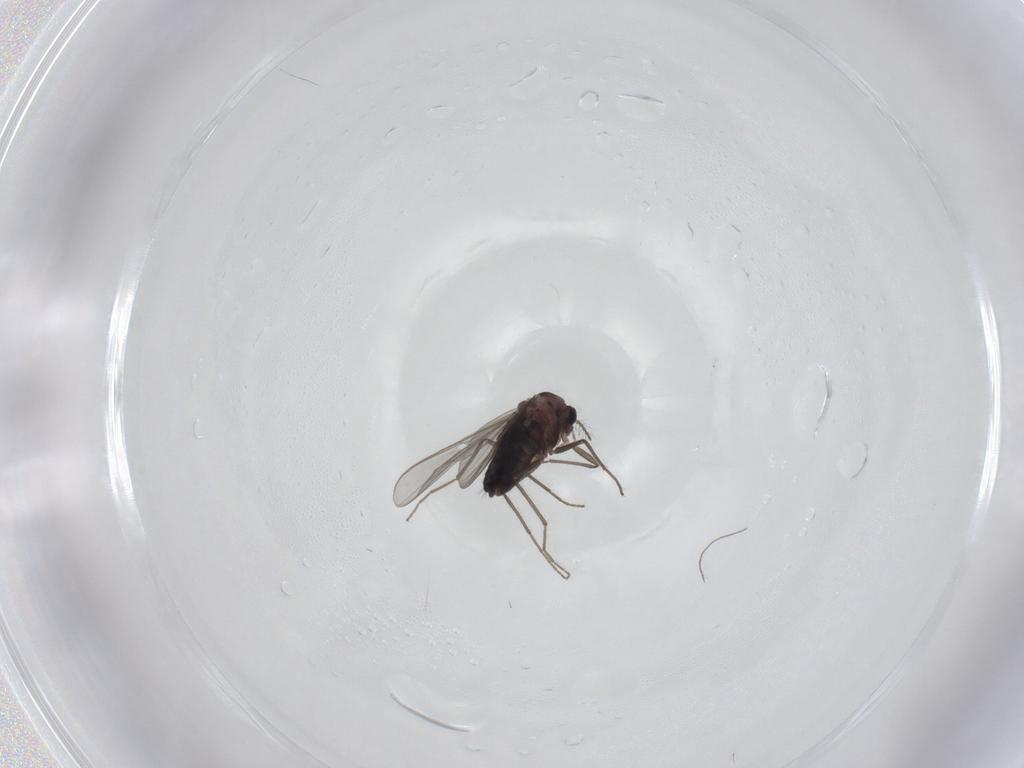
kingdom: Animalia
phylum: Arthropoda
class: Insecta
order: Diptera
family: Chironomidae
